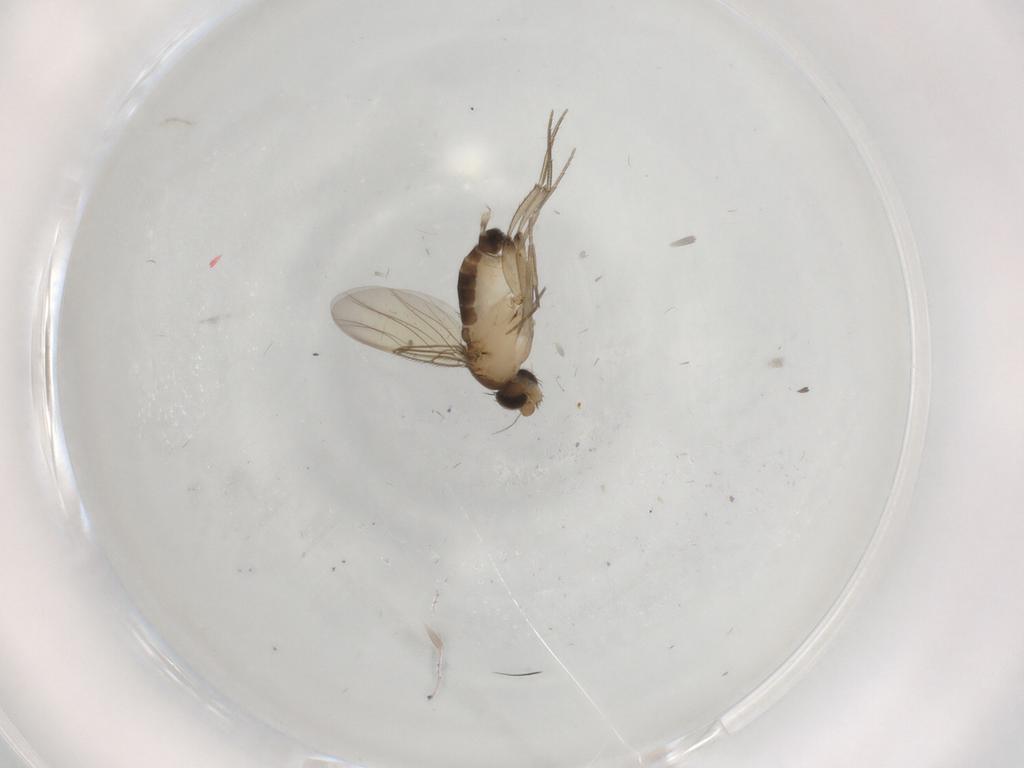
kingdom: Animalia
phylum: Arthropoda
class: Insecta
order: Diptera
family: Phoridae
